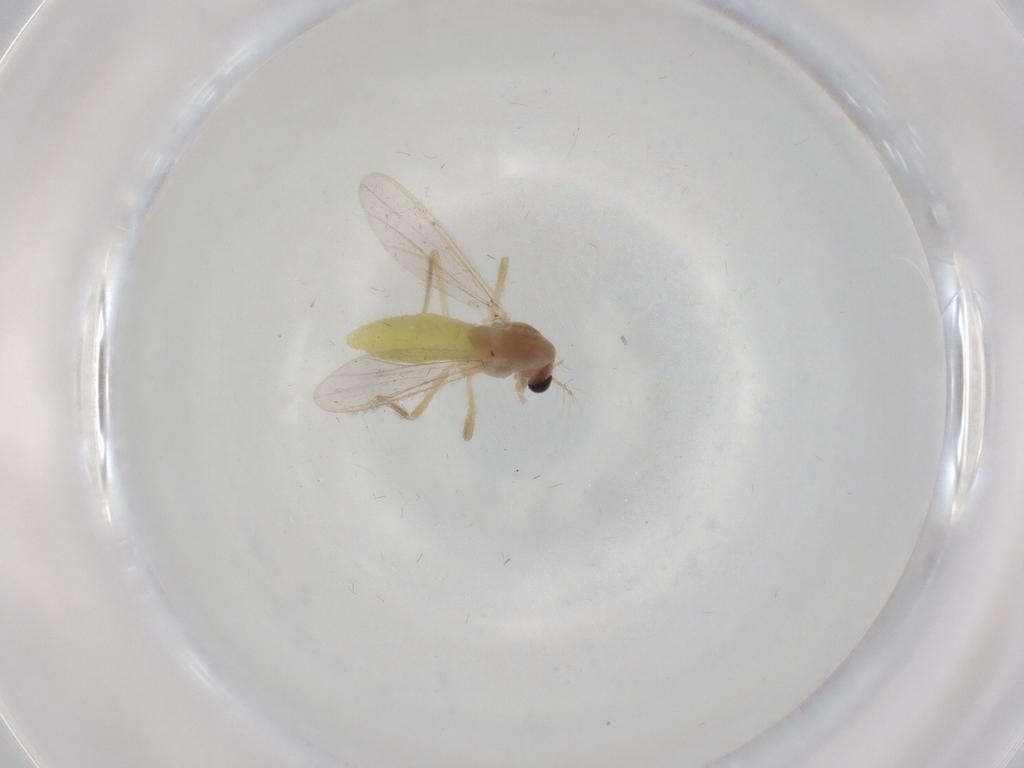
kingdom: Animalia
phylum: Arthropoda
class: Insecta
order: Diptera
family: Chironomidae
